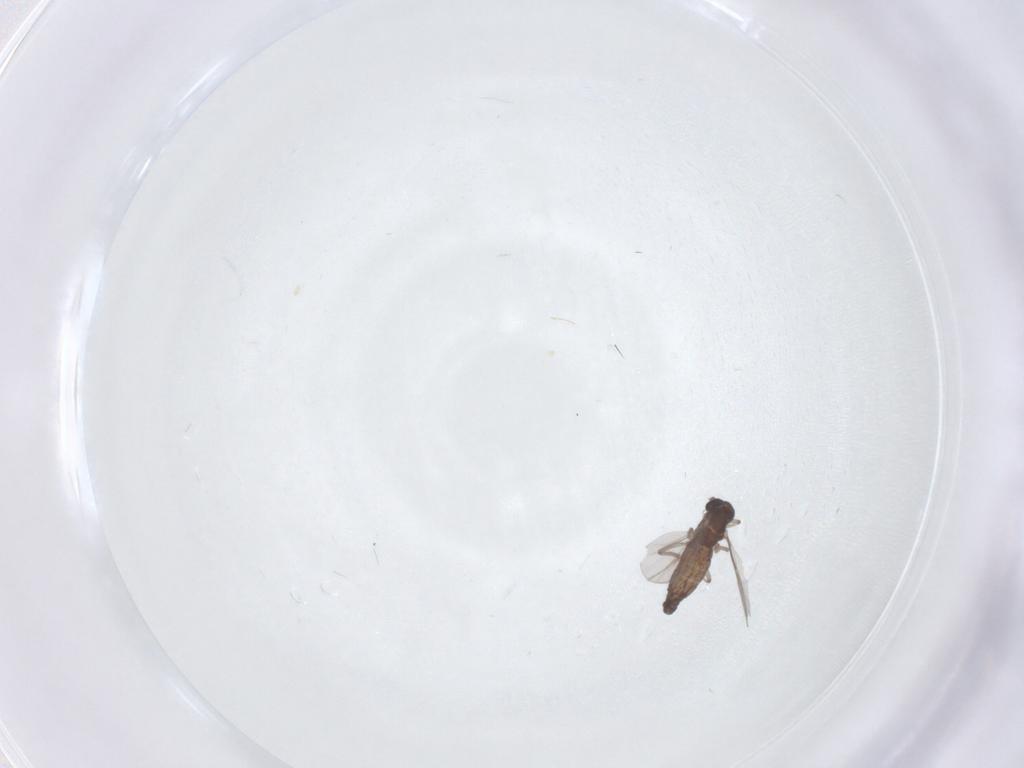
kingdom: Animalia
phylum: Arthropoda
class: Insecta
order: Diptera
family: Ceratopogonidae
